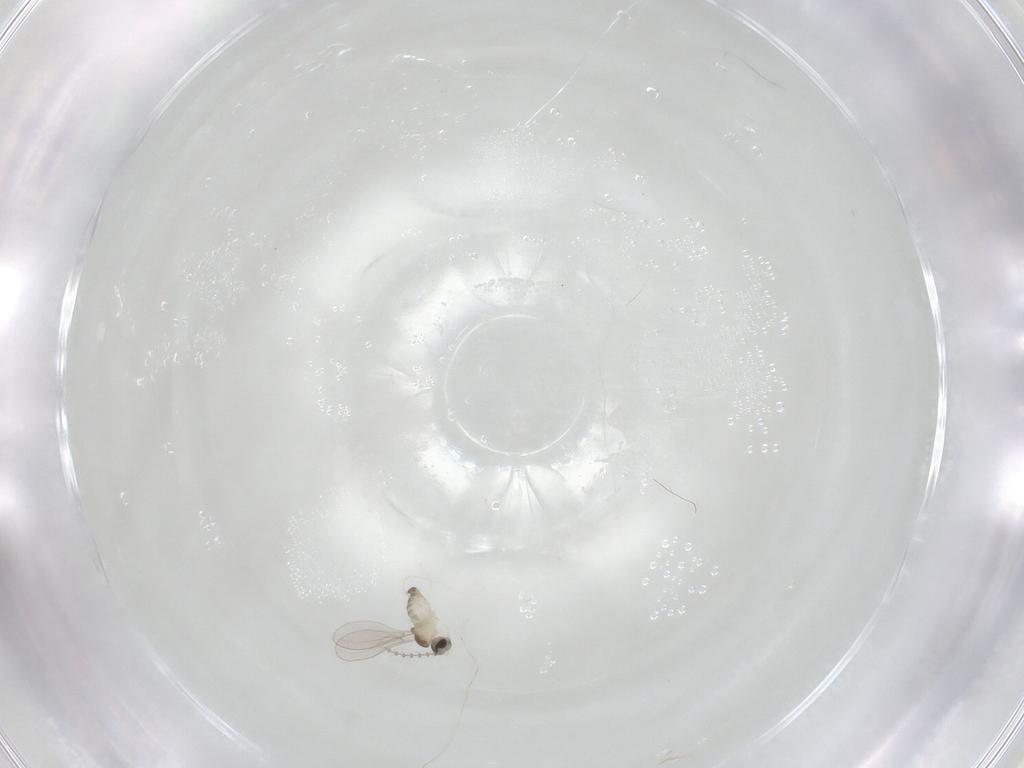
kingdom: Animalia
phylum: Arthropoda
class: Insecta
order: Diptera
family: Cecidomyiidae
